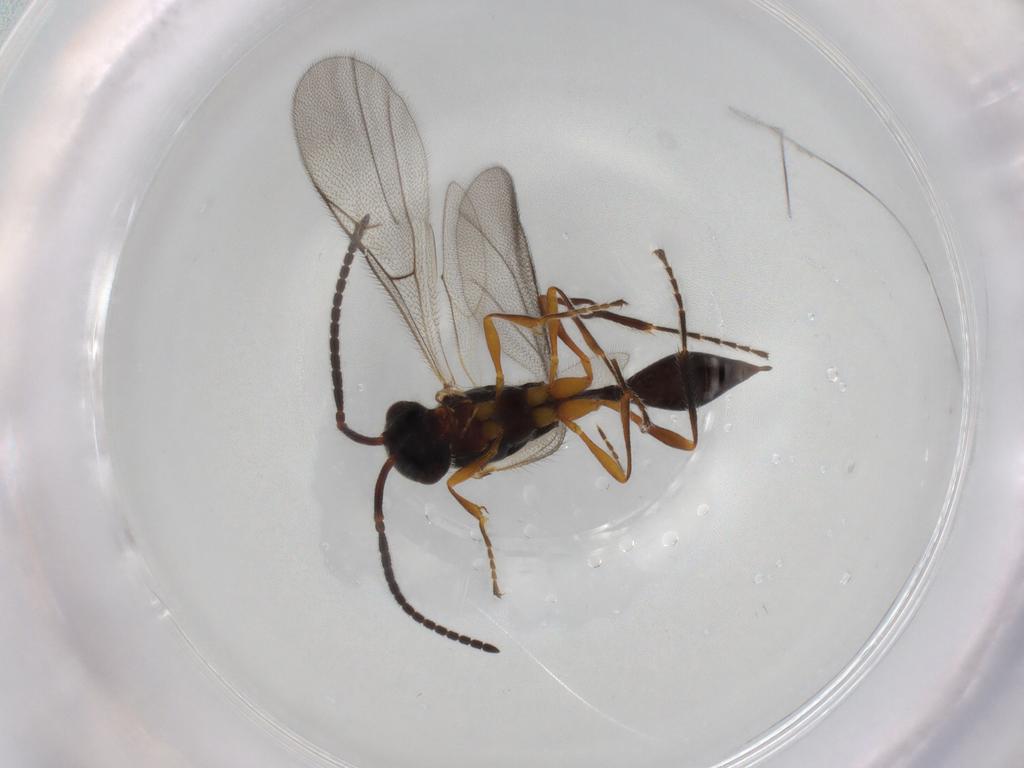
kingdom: Animalia
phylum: Arthropoda
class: Insecta
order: Hymenoptera
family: Diapriidae
